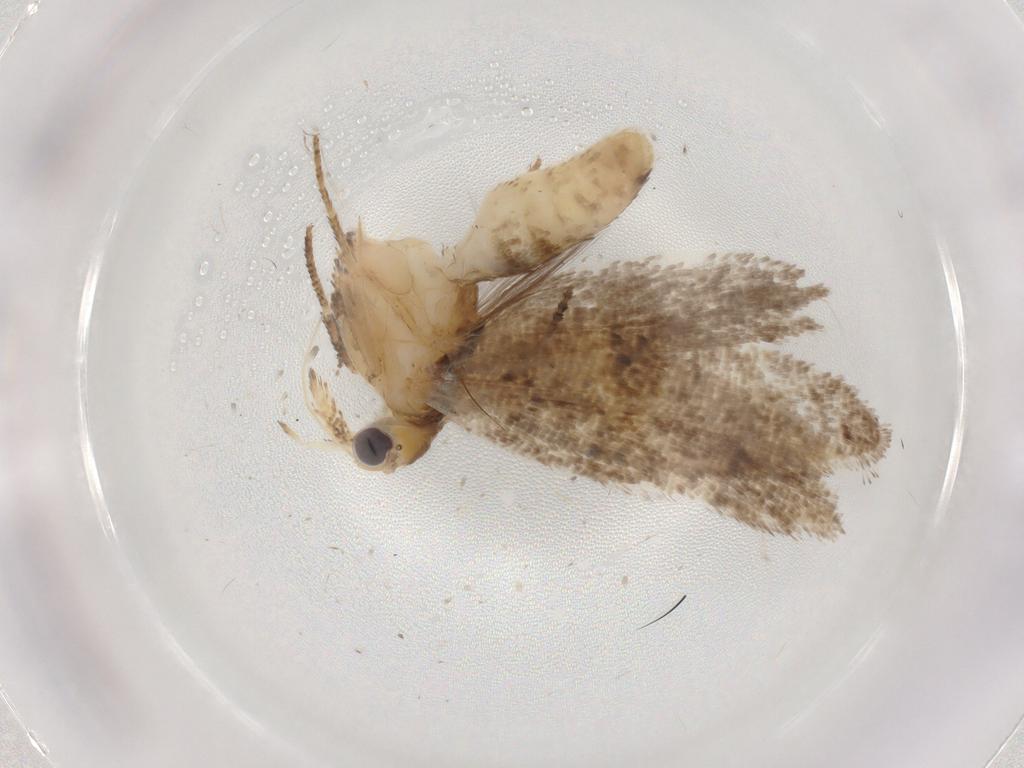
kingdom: Animalia
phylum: Arthropoda
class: Insecta
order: Lepidoptera
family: Ypsolophidae
